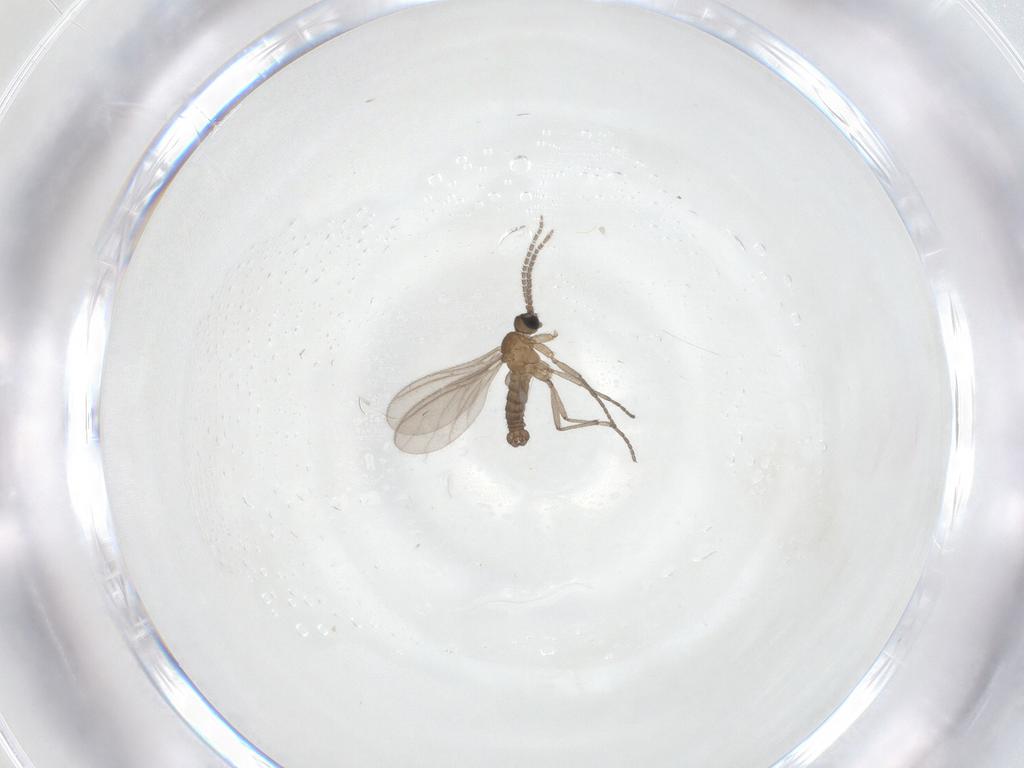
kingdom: Animalia
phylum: Arthropoda
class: Insecta
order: Diptera
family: Sciaridae
